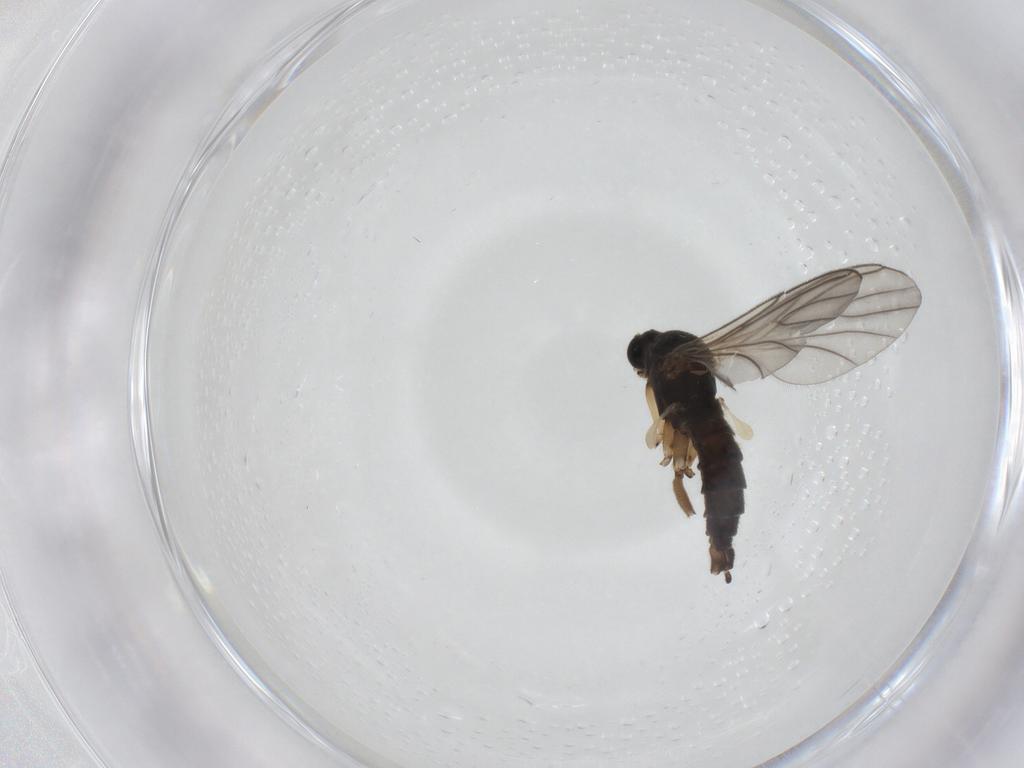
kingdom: Animalia
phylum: Arthropoda
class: Insecta
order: Diptera
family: Sciaridae
